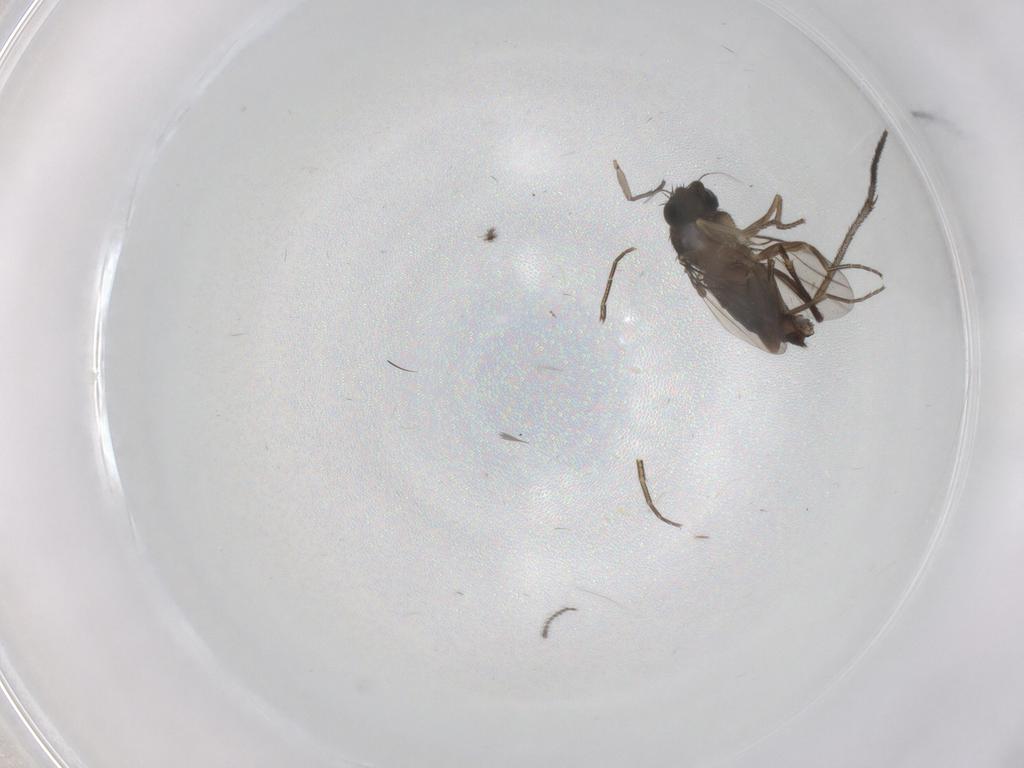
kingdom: Animalia
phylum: Arthropoda
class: Insecta
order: Diptera
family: Phoridae
